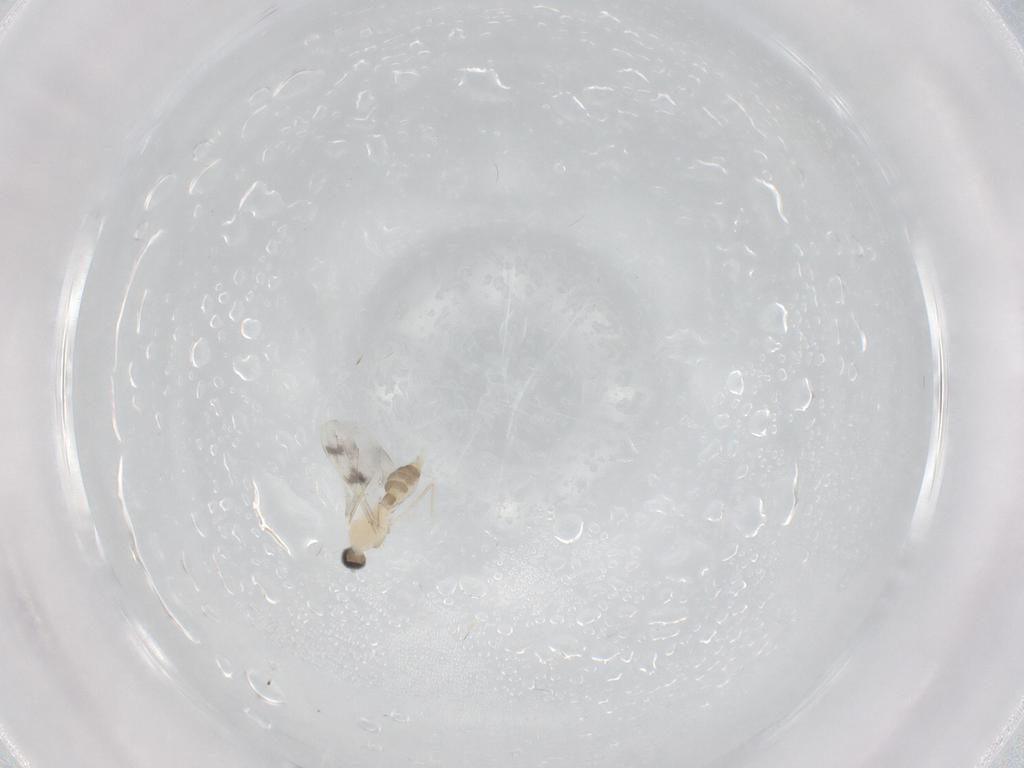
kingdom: Animalia
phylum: Arthropoda
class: Insecta
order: Diptera
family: Cecidomyiidae
